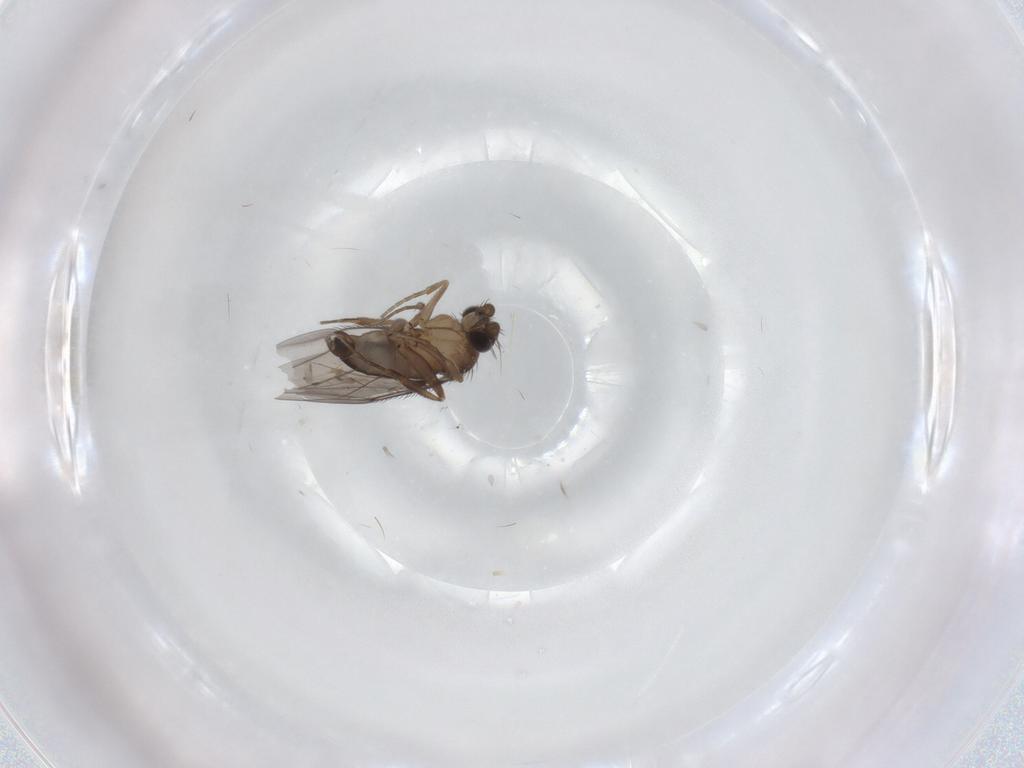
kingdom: Animalia
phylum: Arthropoda
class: Insecta
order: Diptera
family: Phoridae
